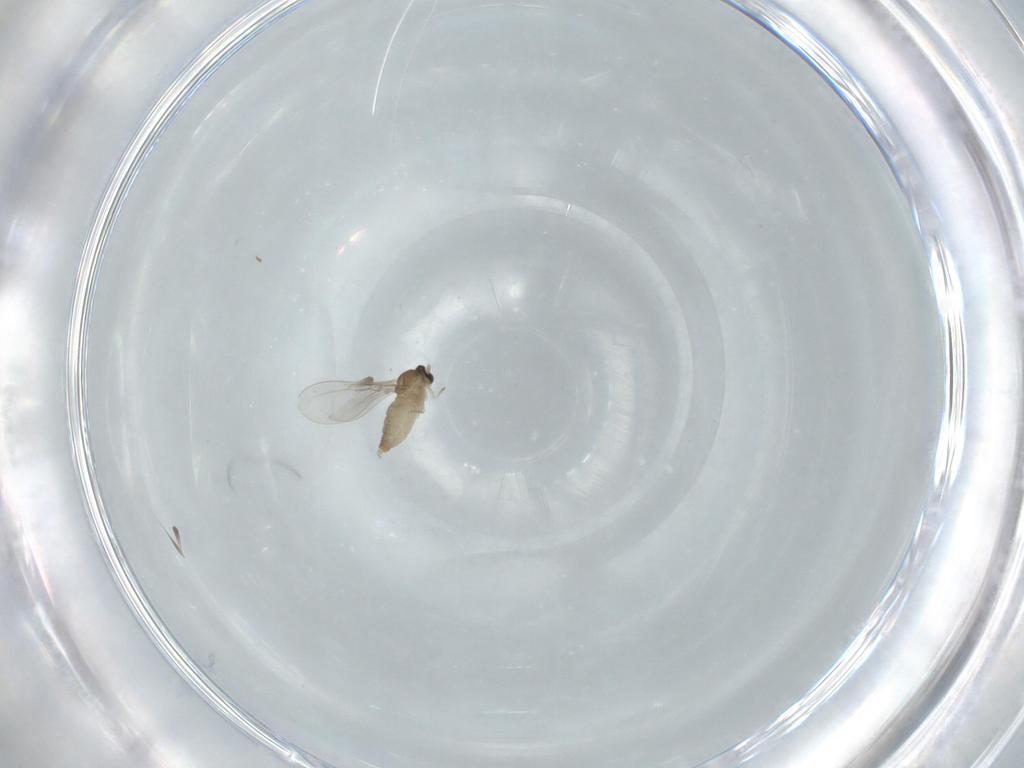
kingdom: Animalia
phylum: Arthropoda
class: Insecta
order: Diptera
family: Cecidomyiidae
